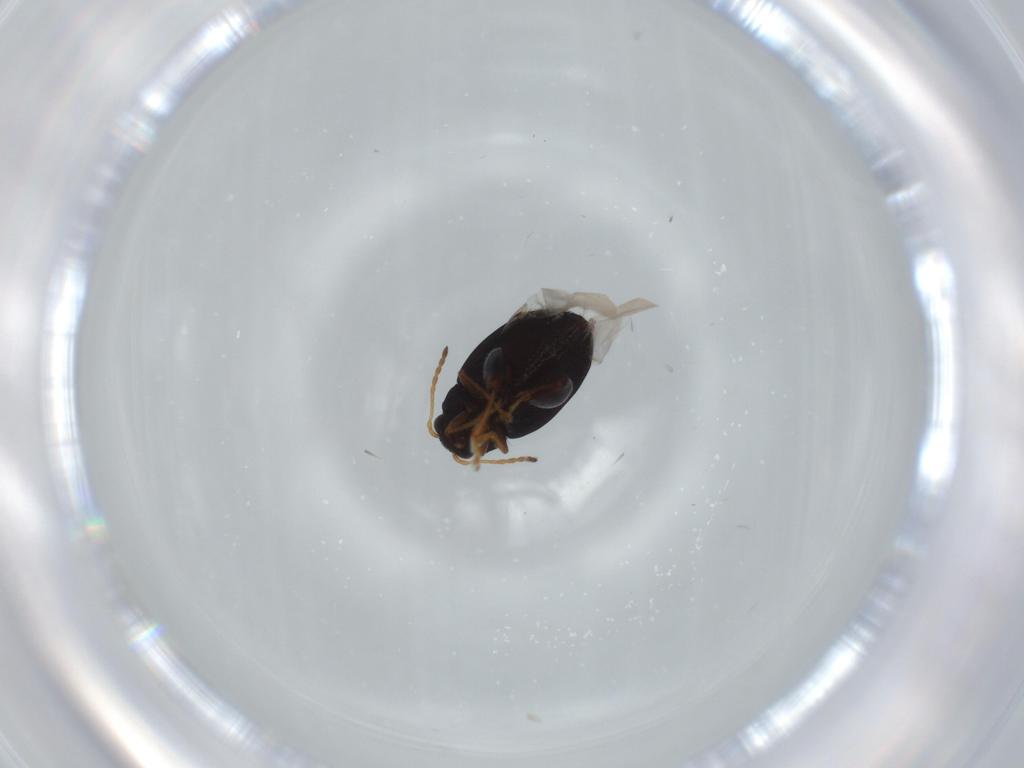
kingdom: Animalia
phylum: Arthropoda
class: Insecta
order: Coleoptera
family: Chrysomelidae
